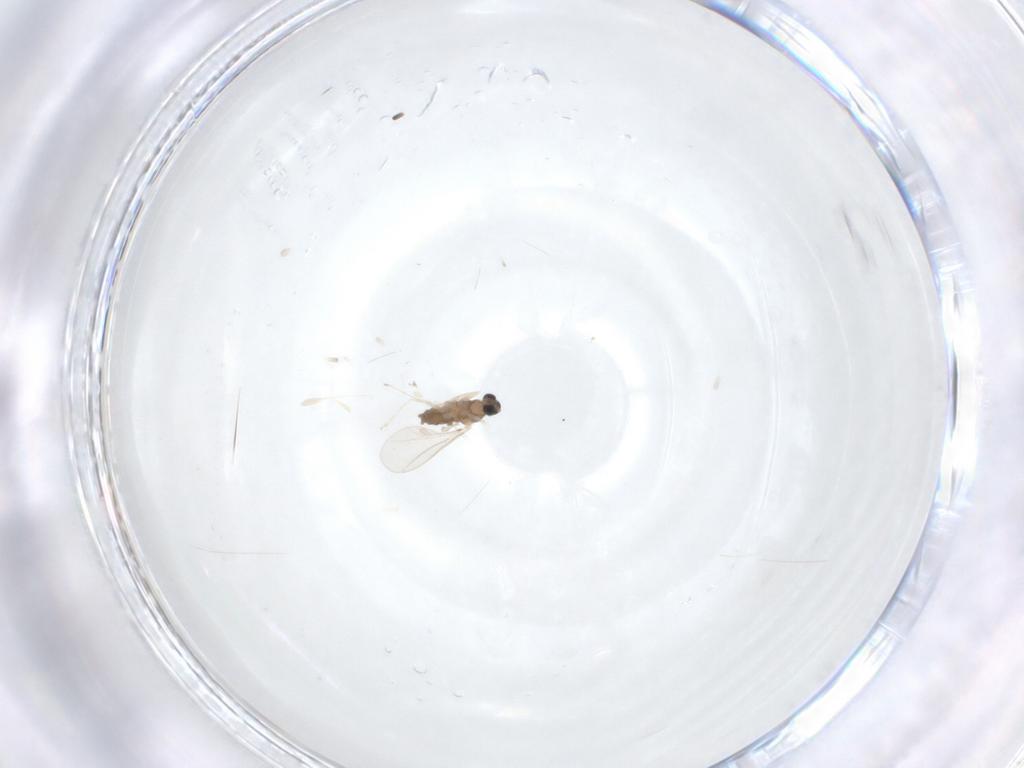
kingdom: Animalia
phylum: Arthropoda
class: Insecta
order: Diptera
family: Cecidomyiidae
